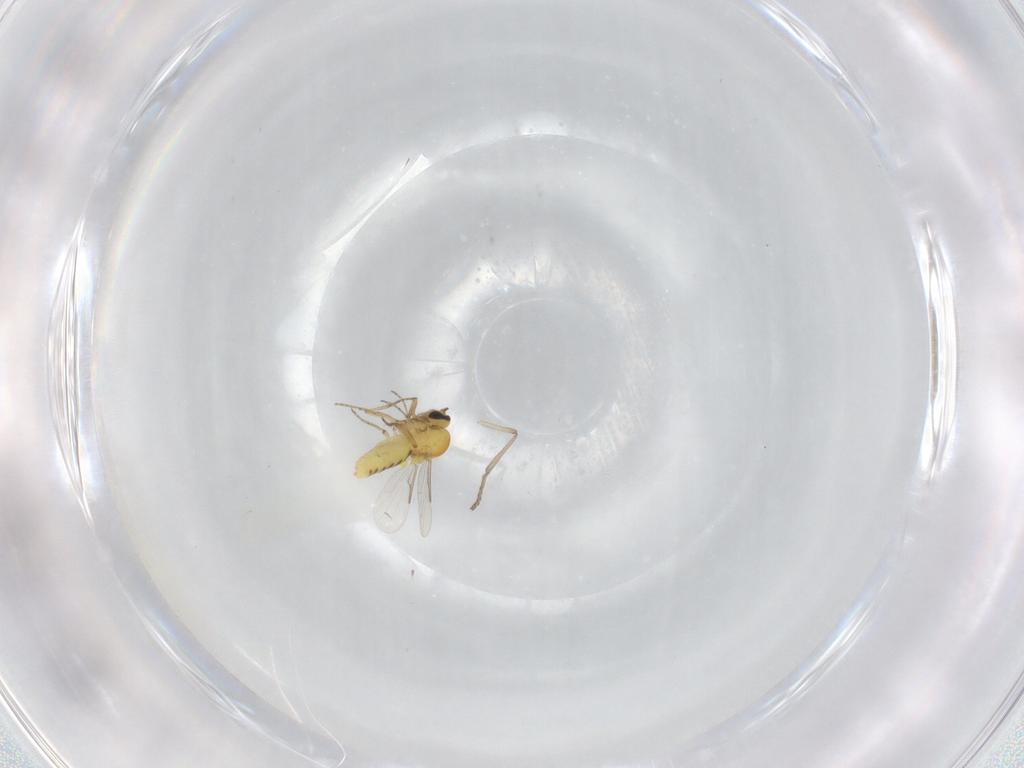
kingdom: Animalia
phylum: Arthropoda
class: Insecta
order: Diptera
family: Ceratopogonidae
